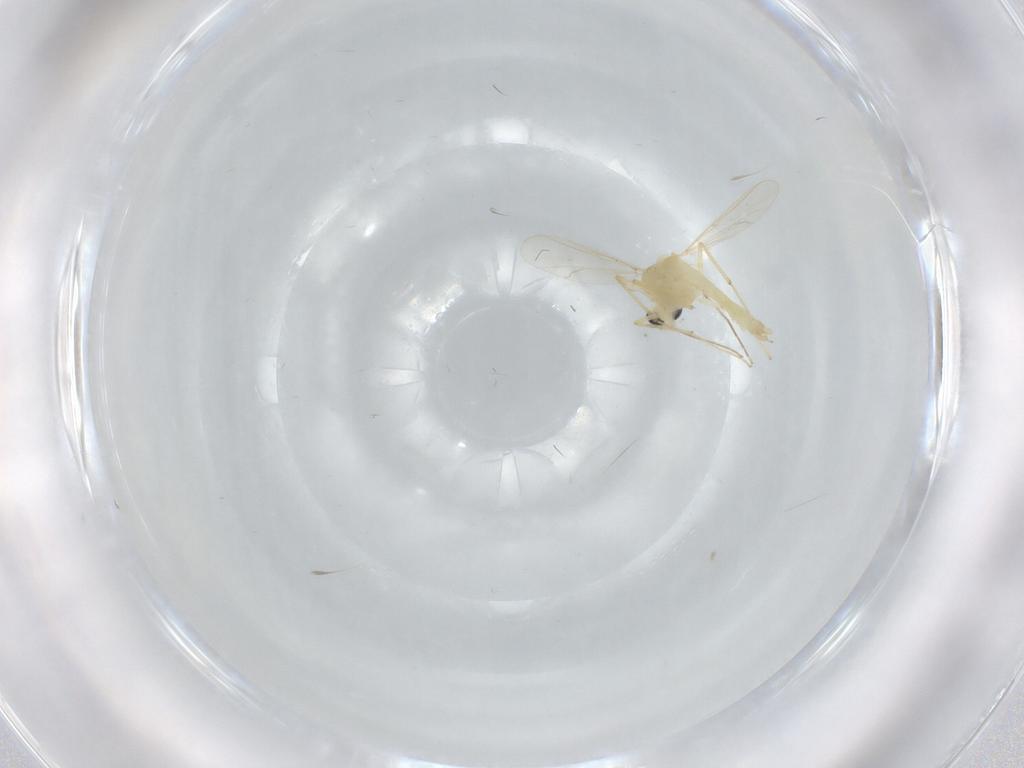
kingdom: Animalia
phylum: Arthropoda
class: Insecta
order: Diptera
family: Chironomidae
